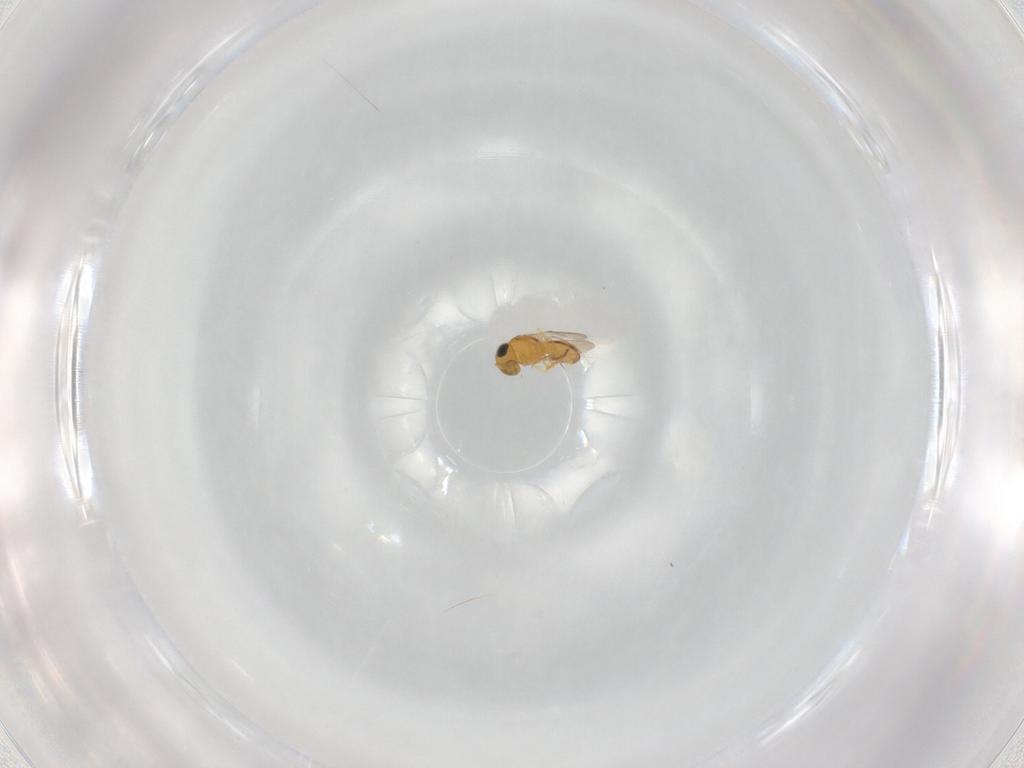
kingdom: Animalia
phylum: Arthropoda
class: Insecta
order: Hymenoptera
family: Scelionidae
